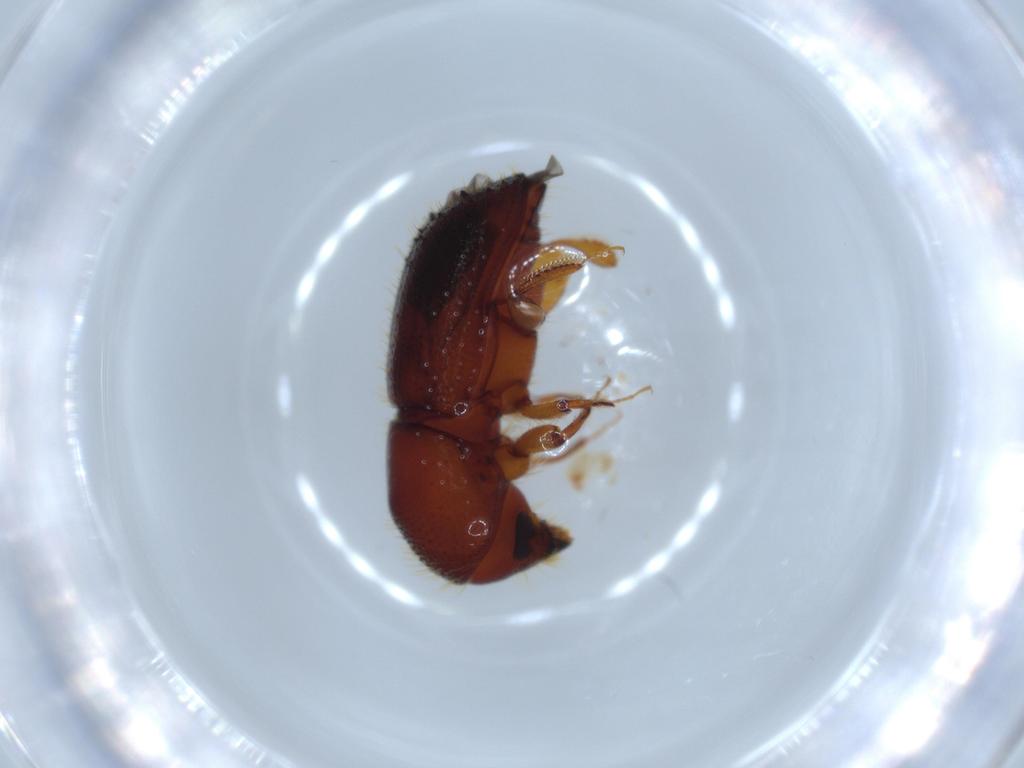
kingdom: Animalia
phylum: Arthropoda
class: Insecta
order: Coleoptera
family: Curculionidae
